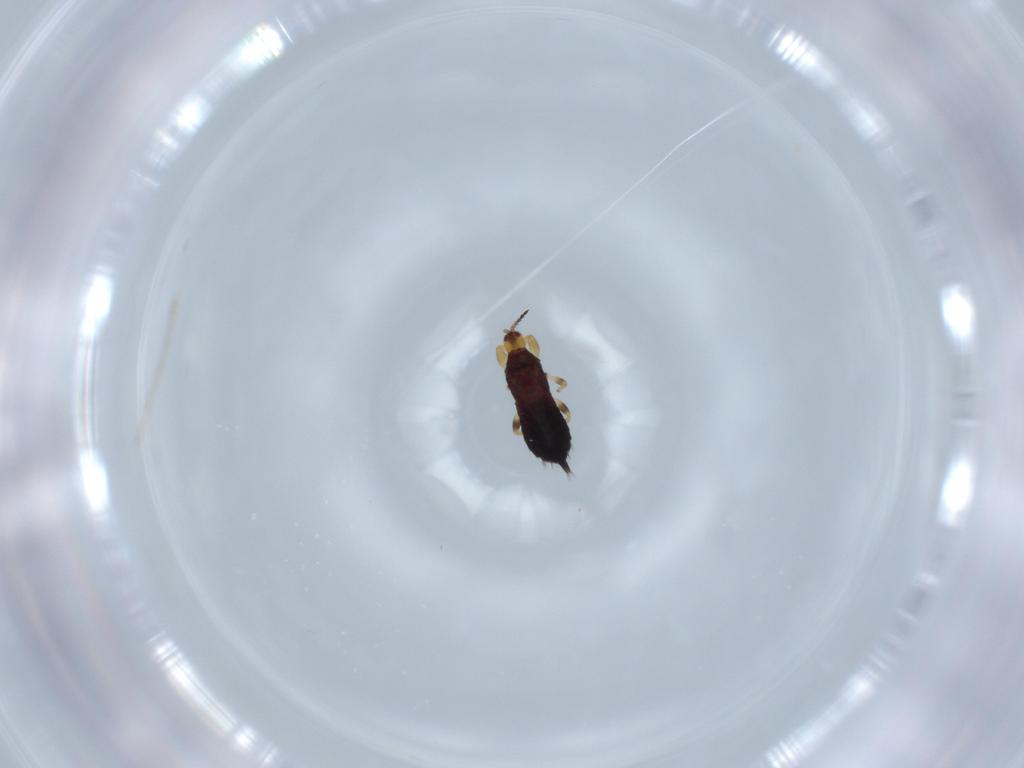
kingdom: Animalia
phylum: Arthropoda
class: Insecta
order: Thysanoptera
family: Phlaeothripidae
